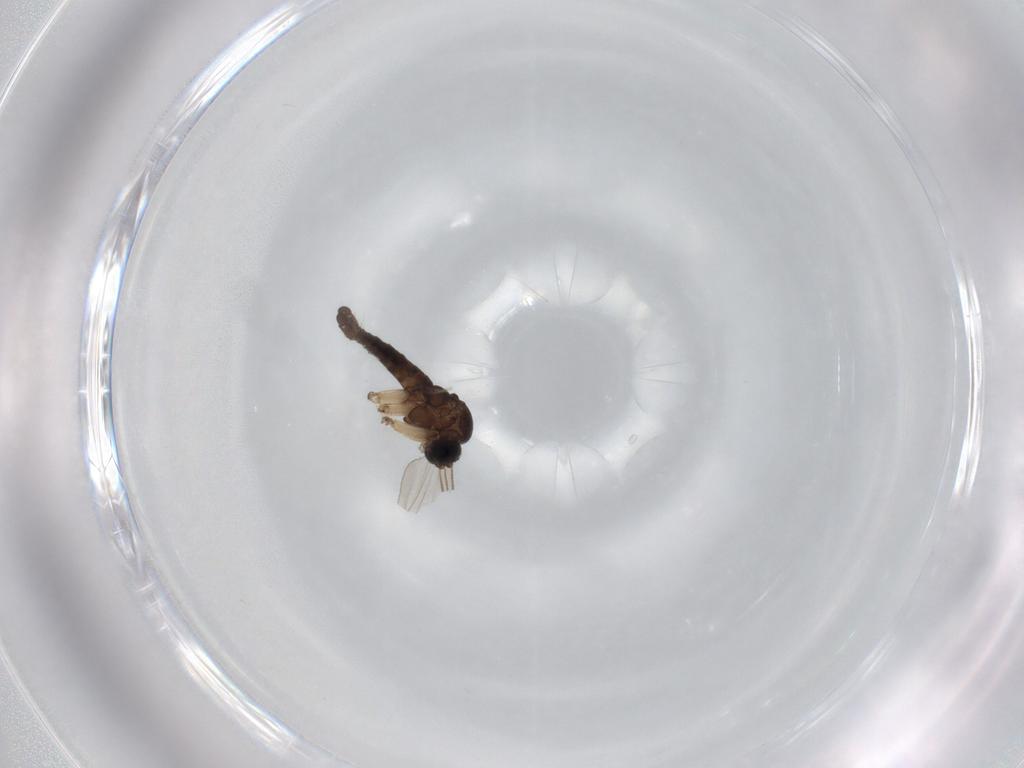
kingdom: Animalia
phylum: Arthropoda
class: Insecta
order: Diptera
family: Sciaridae
